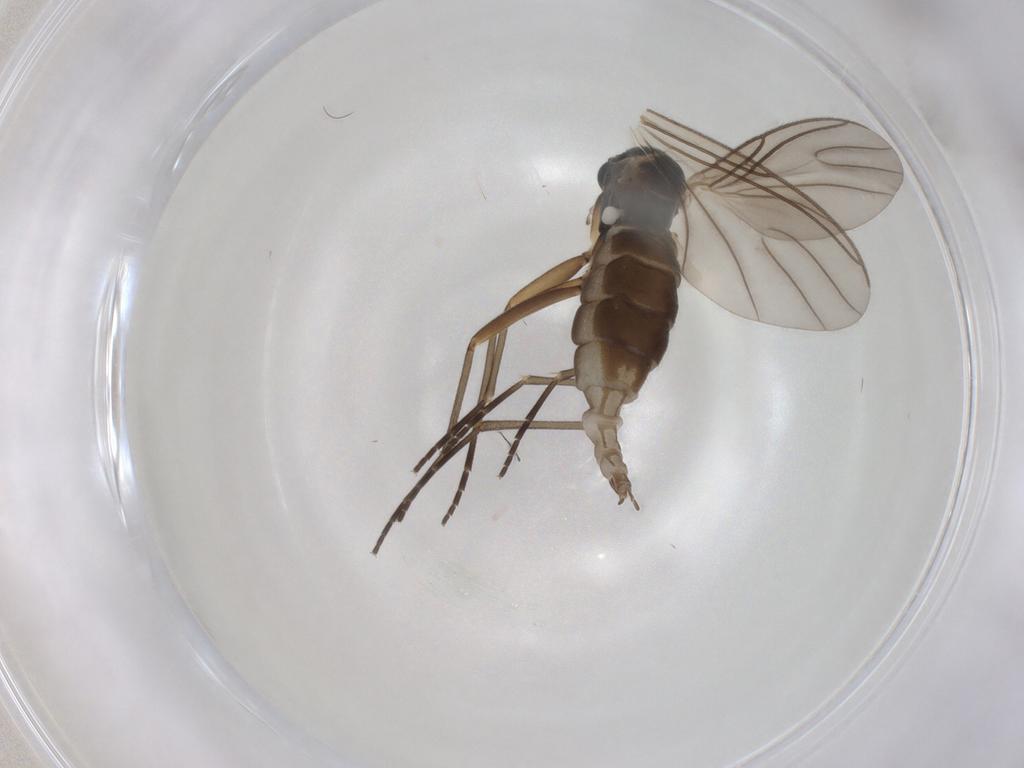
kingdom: Animalia
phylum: Arthropoda
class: Insecta
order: Diptera
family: Sciaridae
